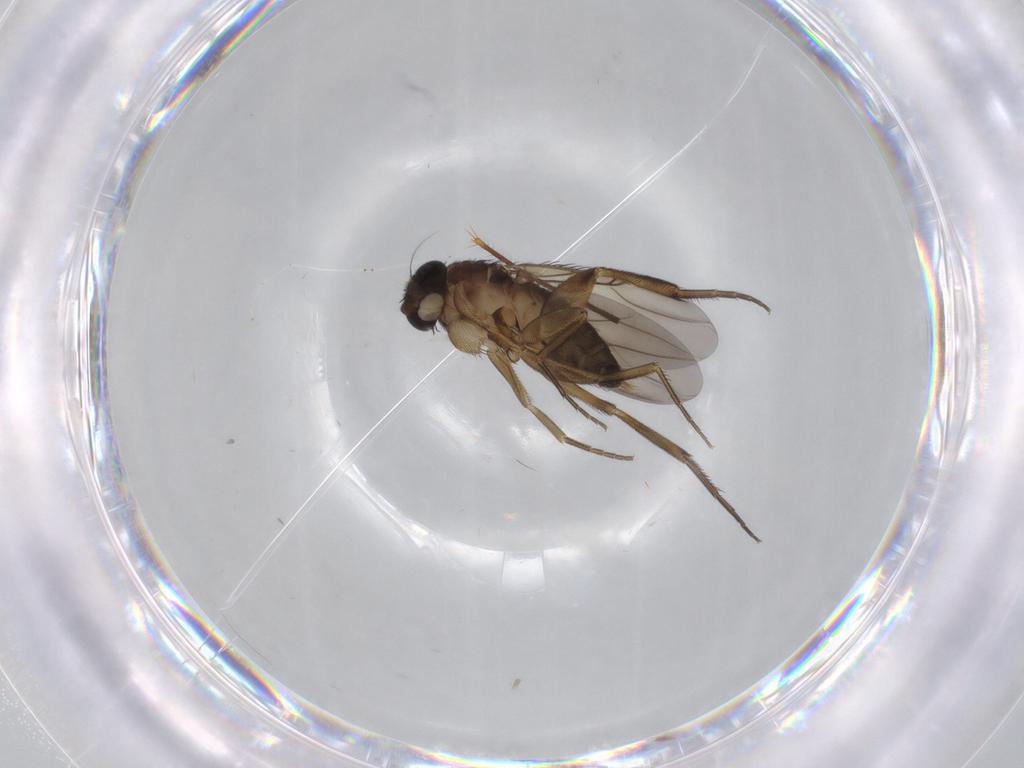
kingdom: Animalia
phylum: Arthropoda
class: Insecta
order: Diptera
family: Phoridae
